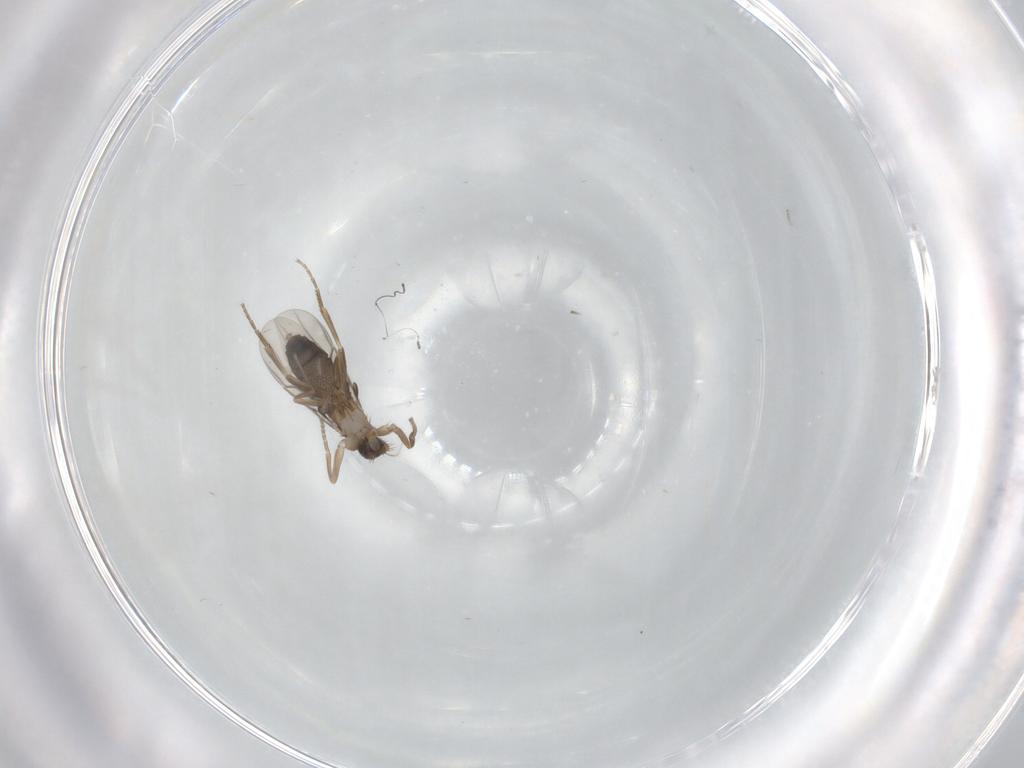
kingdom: Animalia
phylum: Arthropoda
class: Insecta
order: Diptera
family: Phoridae
